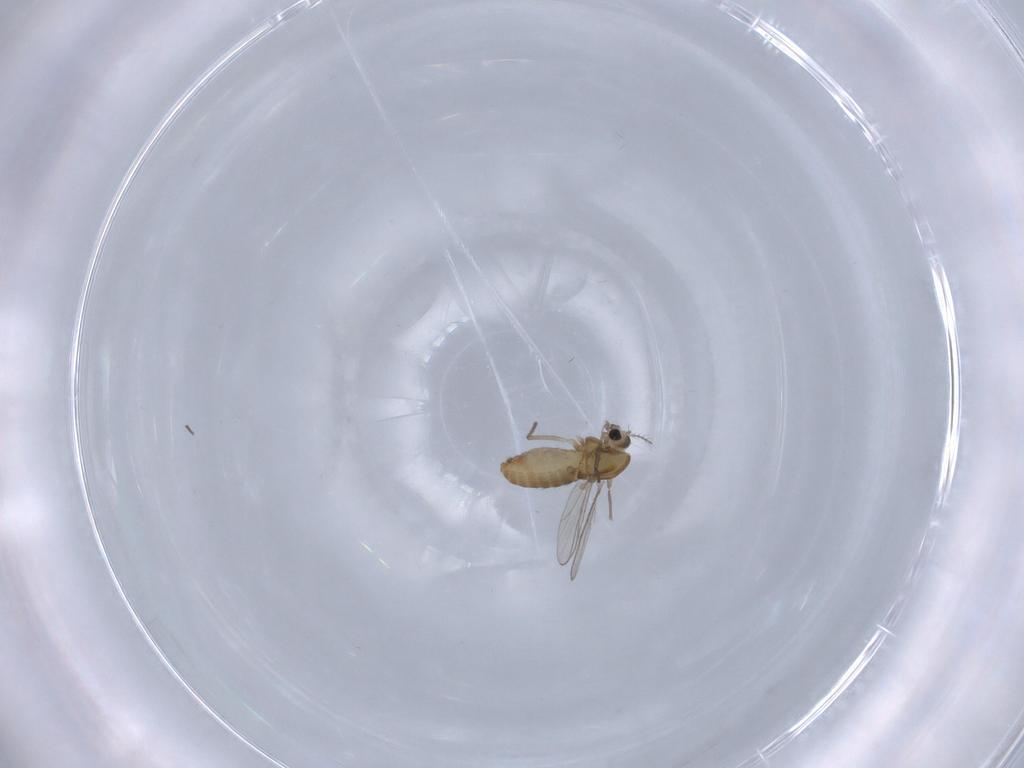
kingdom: Animalia
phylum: Arthropoda
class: Insecta
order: Diptera
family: Chironomidae
